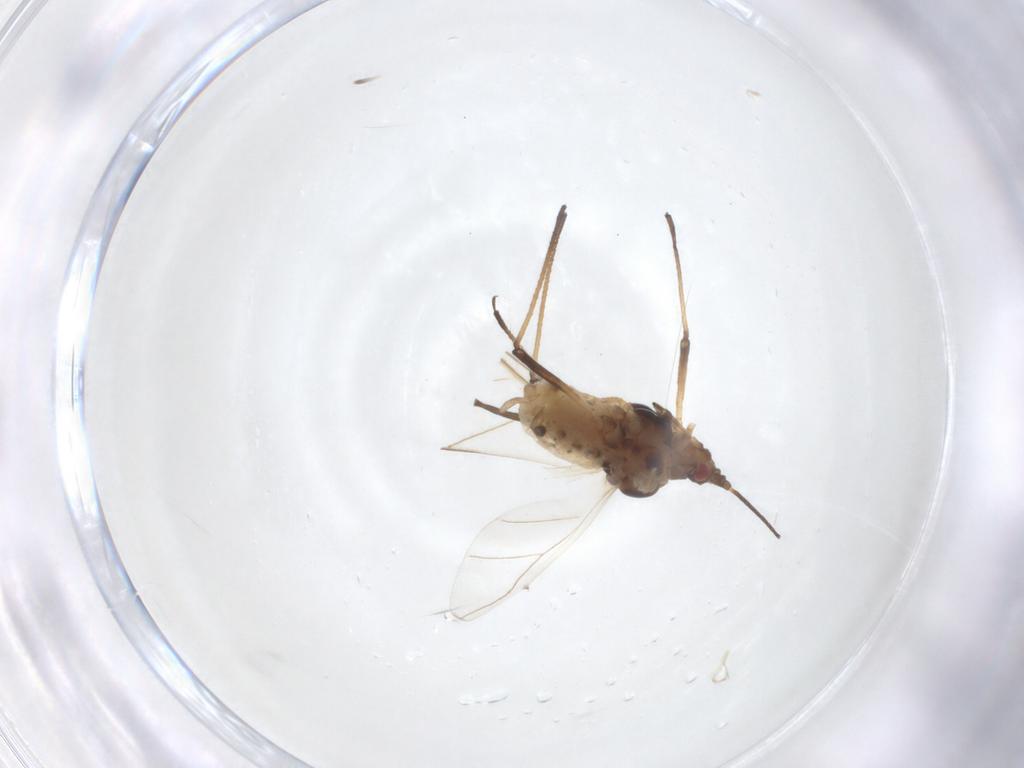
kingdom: Animalia
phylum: Arthropoda
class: Insecta
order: Hemiptera
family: Aphididae
